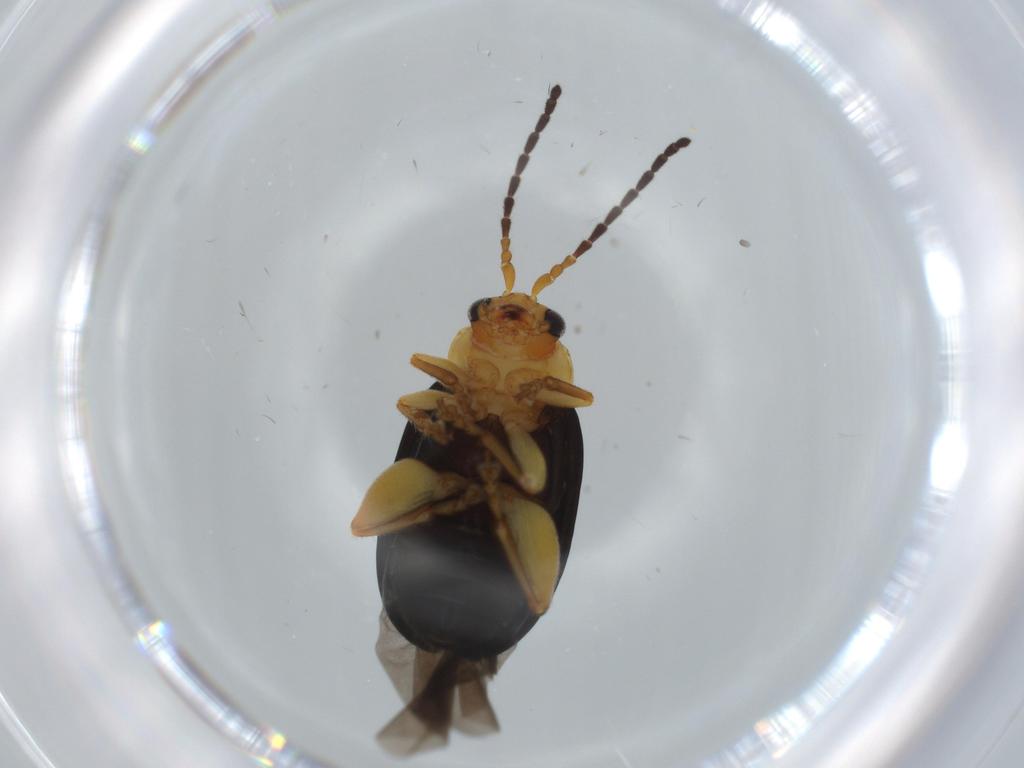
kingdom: Animalia
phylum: Arthropoda
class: Insecta
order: Coleoptera
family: Chrysomelidae
